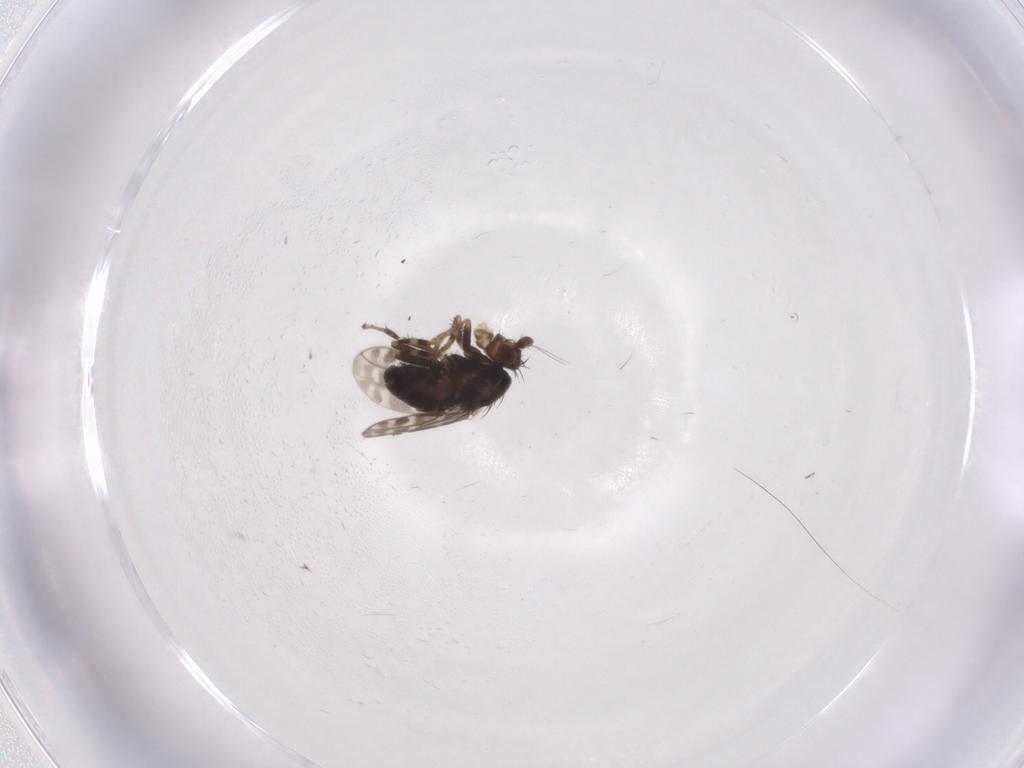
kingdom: Animalia
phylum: Arthropoda
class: Insecta
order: Diptera
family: Sphaeroceridae
